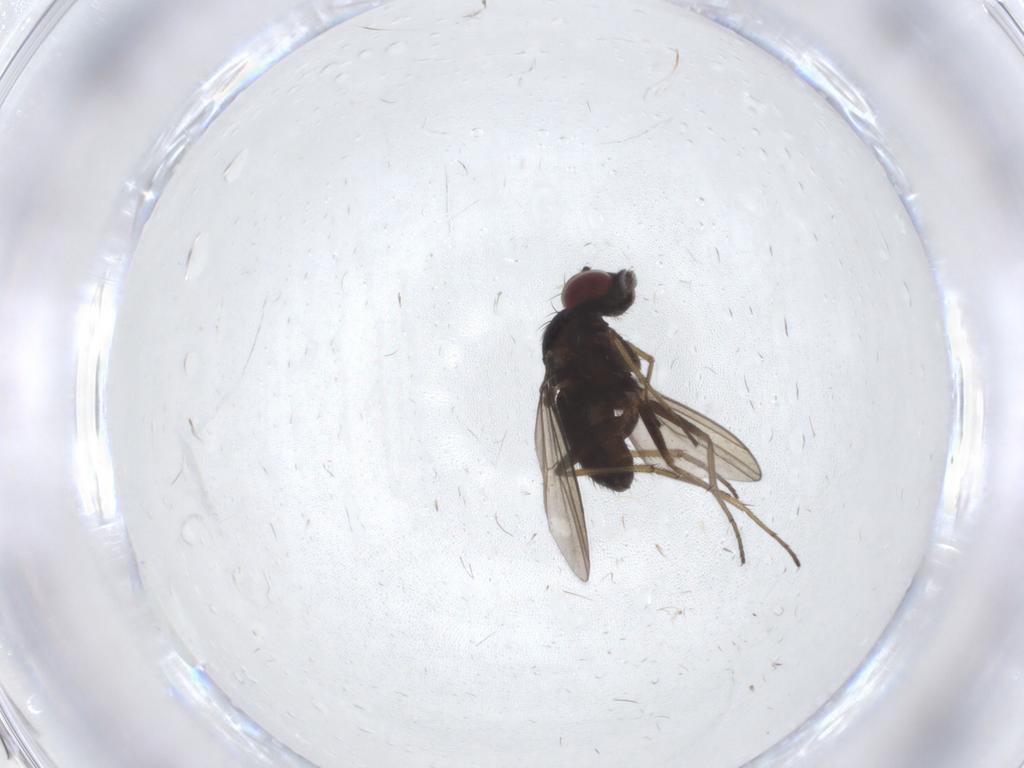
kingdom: Animalia
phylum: Arthropoda
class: Insecta
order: Diptera
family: Dolichopodidae
